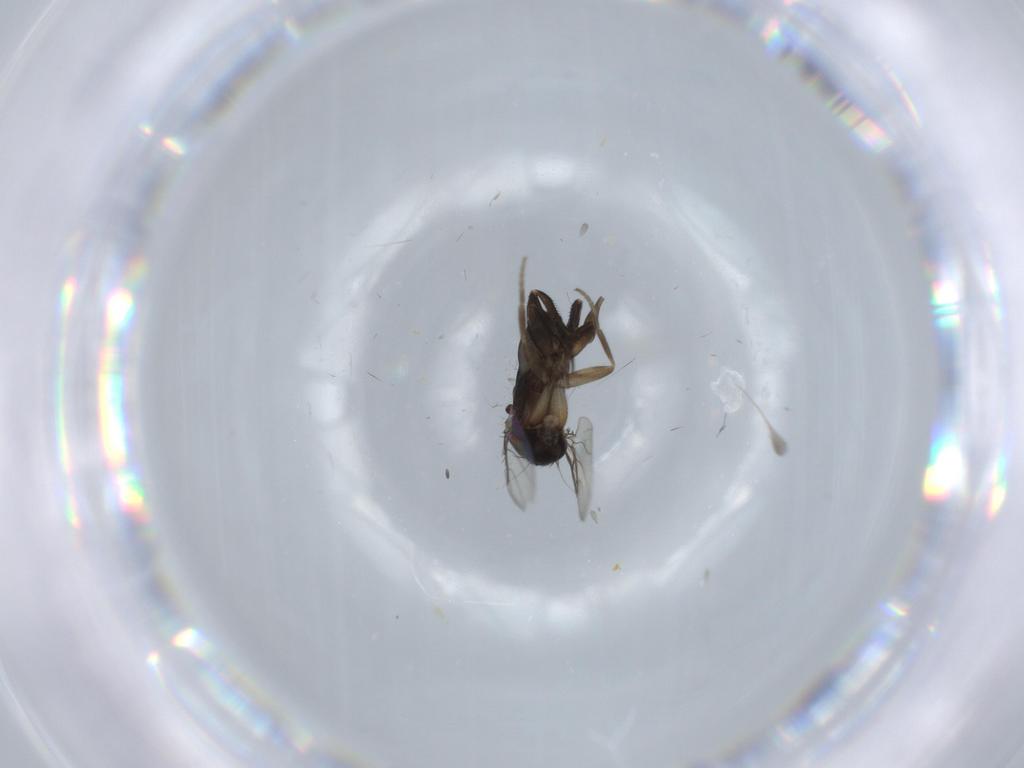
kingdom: Animalia
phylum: Arthropoda
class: Insecta
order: Diptera
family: Phoridae
